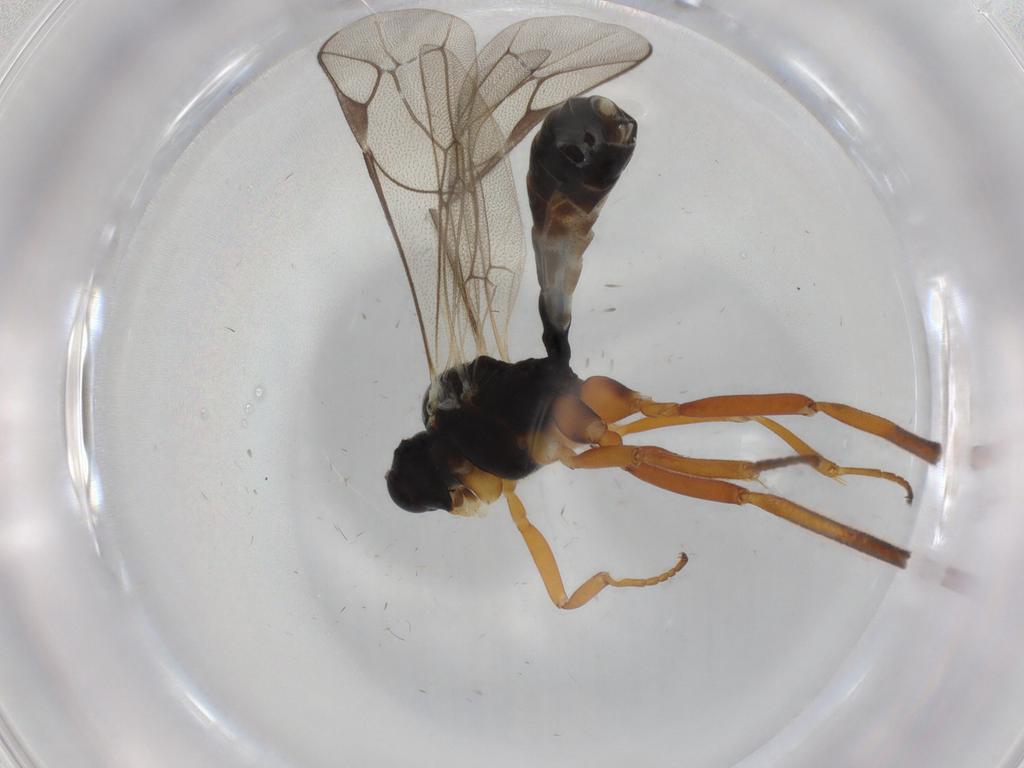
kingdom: Animalia
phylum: Arthropoda
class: Insecta
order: Hymenoptera
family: Ichneumonidae
